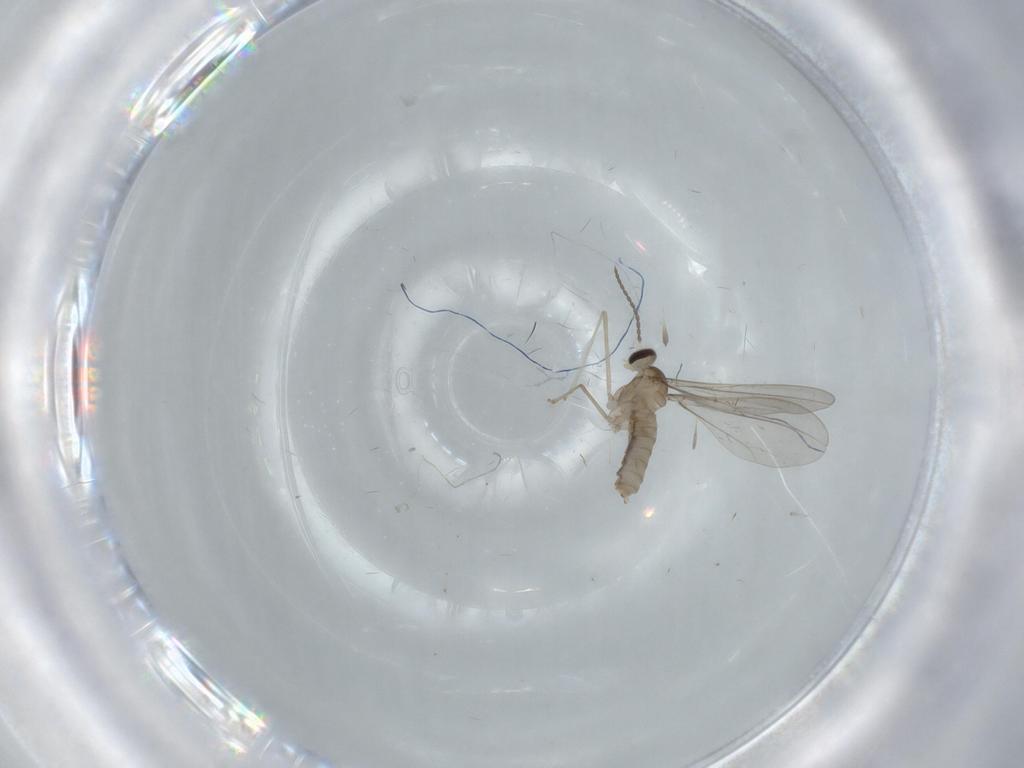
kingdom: Animalia
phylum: Arthropoda
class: Insecta
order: Diptera
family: Cecidomyiidae
